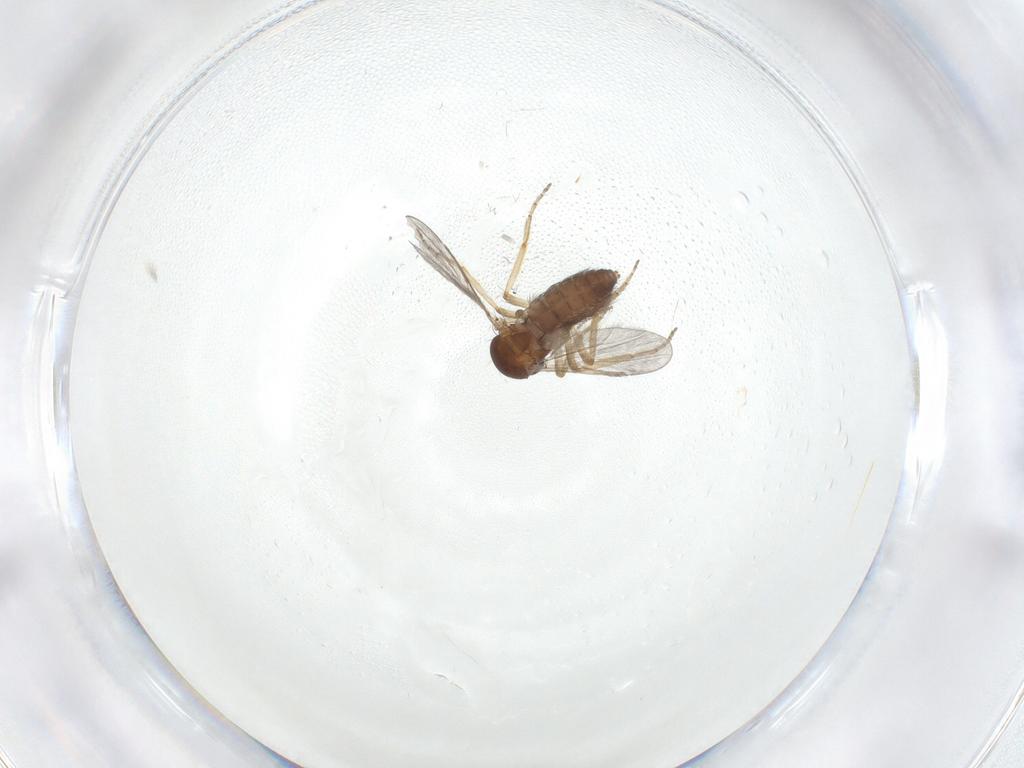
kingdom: Animalia
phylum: Arthropoda
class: Insecta
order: Diptera
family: Ceratopogonidae
